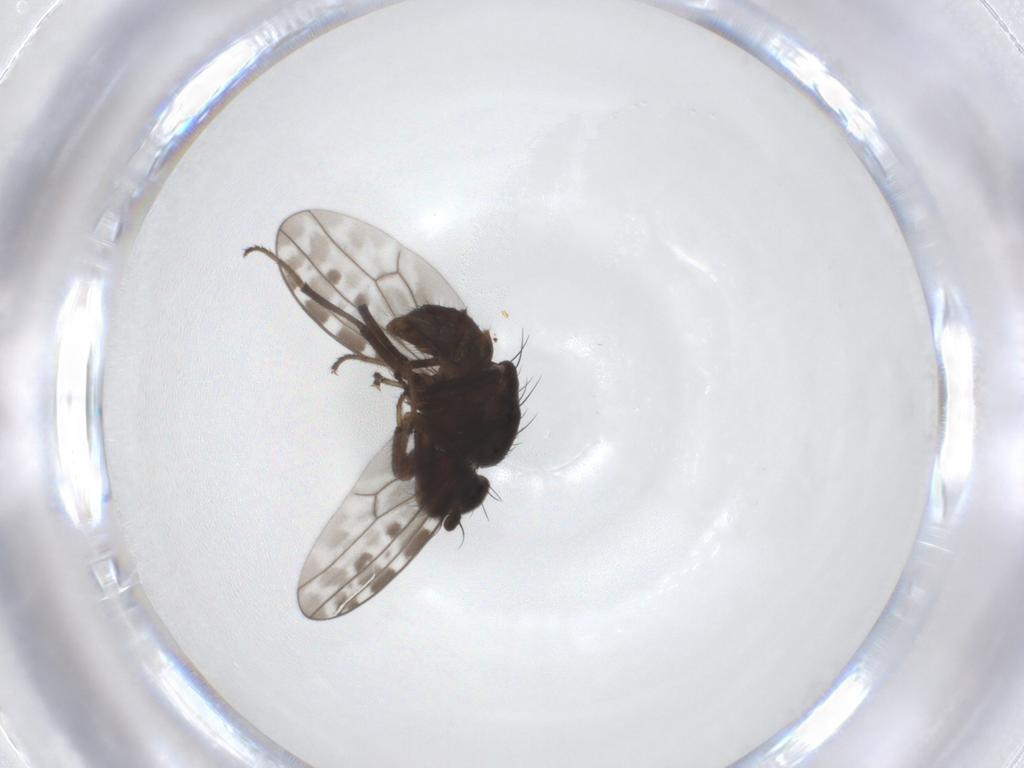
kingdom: Animalia
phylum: Arthropoda
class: Insecta
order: Diptera
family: Ephydridae
